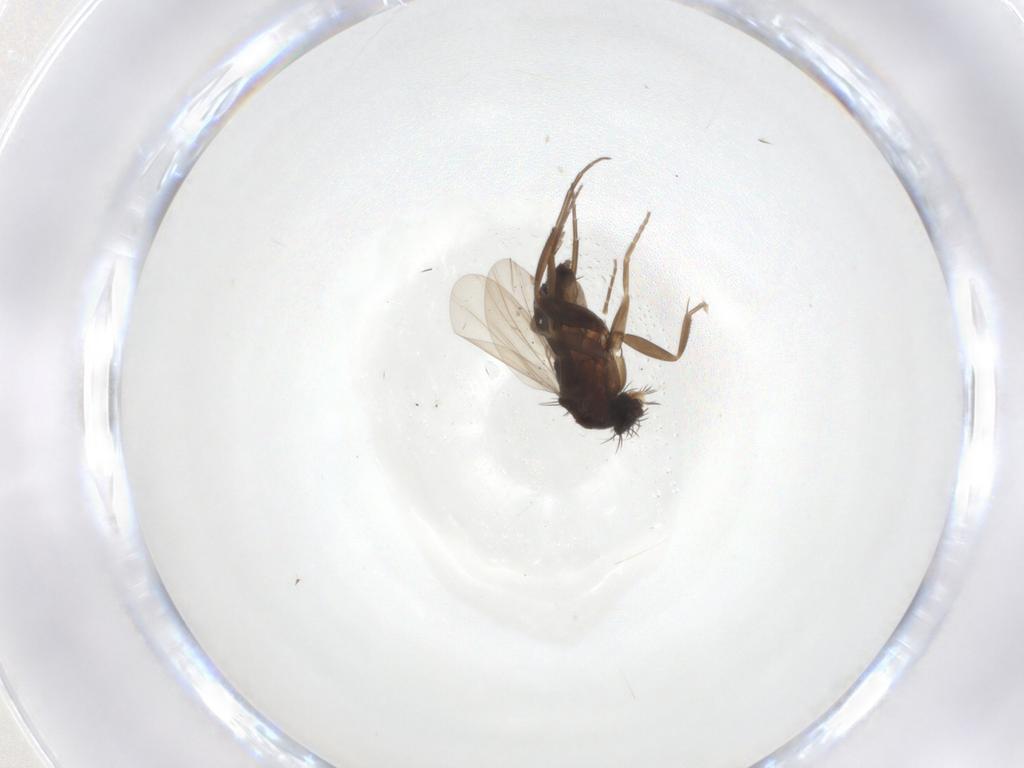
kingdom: Animalia
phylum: Arthropoda
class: Insecta
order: Diptera
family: Phoridae
